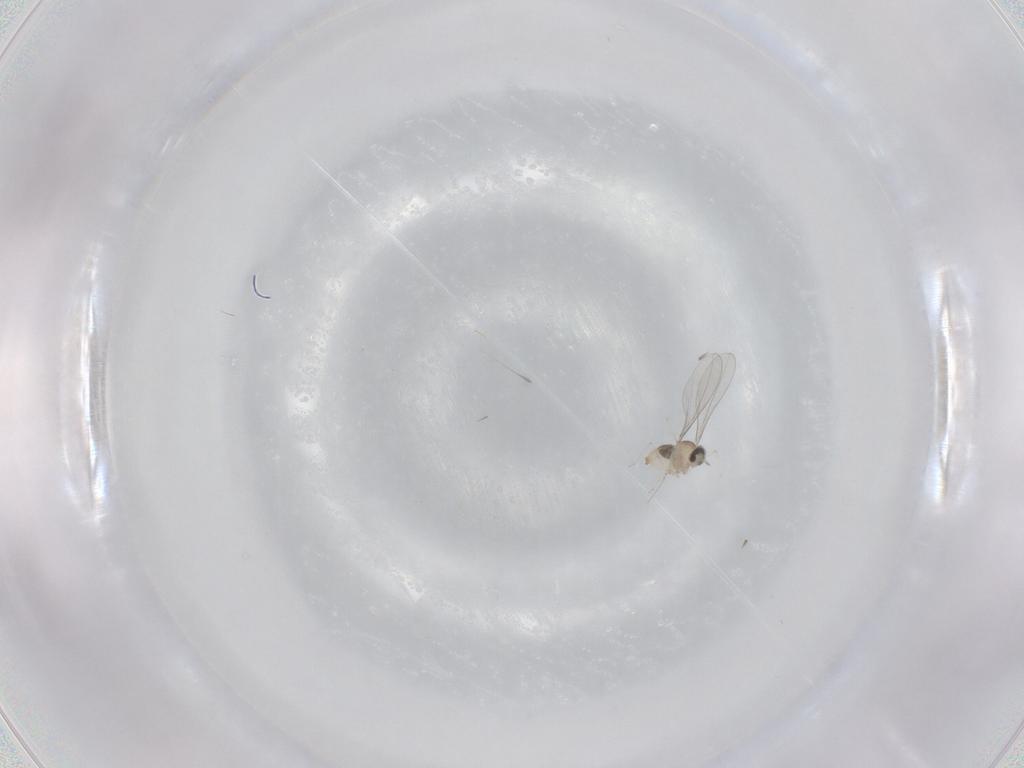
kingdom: Animalia
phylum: Arthropoda
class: Insecta
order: Diptera
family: Cecidomyiidae
